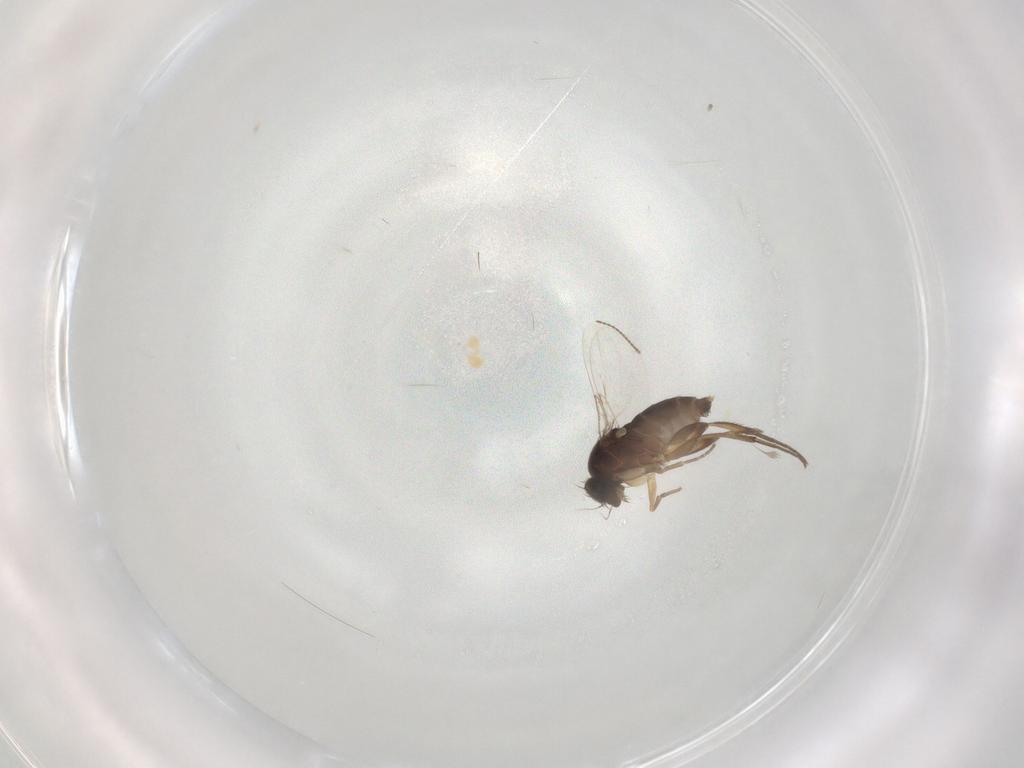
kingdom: Animalia
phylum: Arthropoda
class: Insecta
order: Diptera
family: Phoridae
